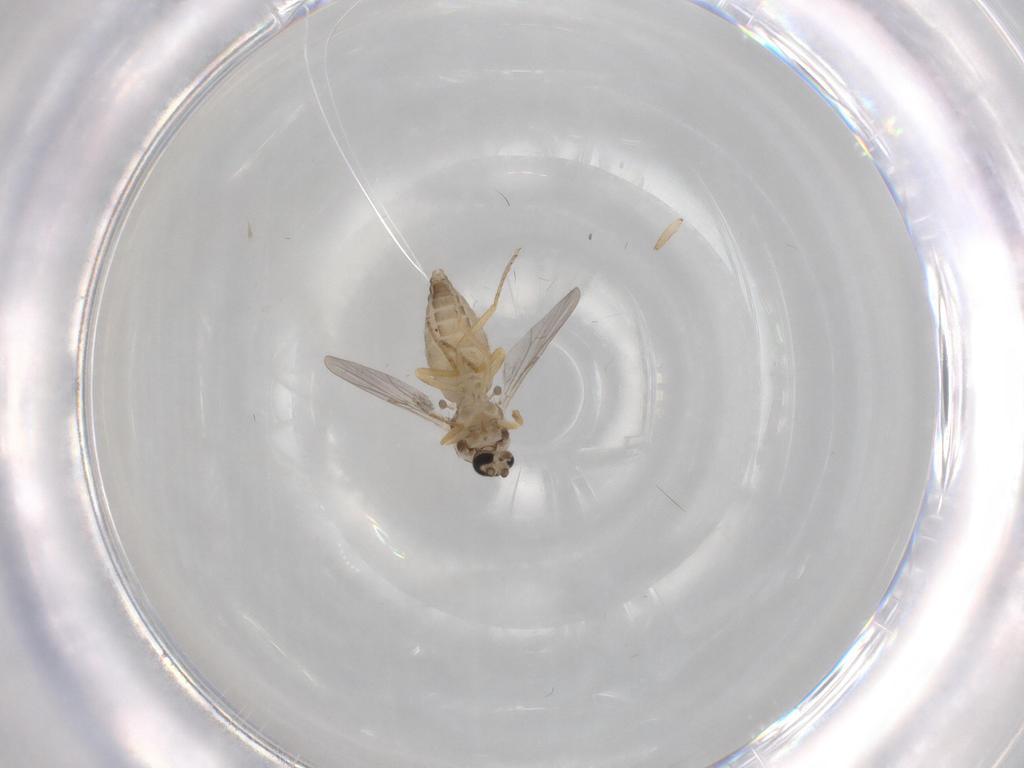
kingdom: Animalia
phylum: Arthropoda
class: Insecta
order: Diptera
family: Ceratopogonidae
